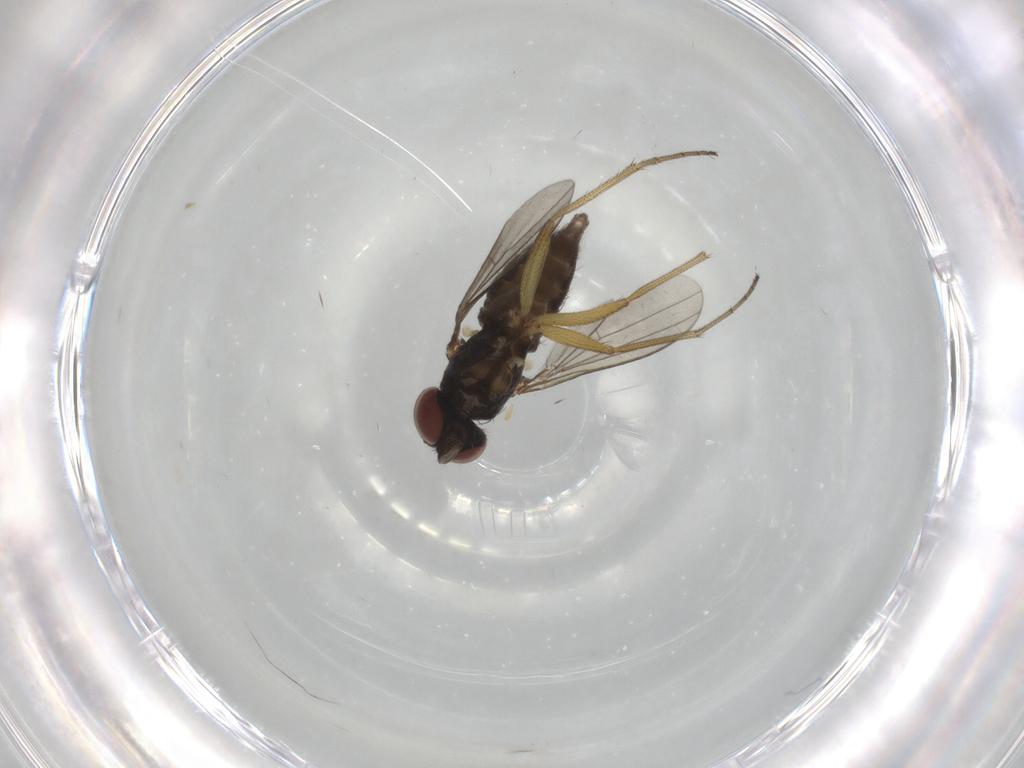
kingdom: Animalia
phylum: Arthropoda
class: Insecta
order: Diptera
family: Dolichopodidae
